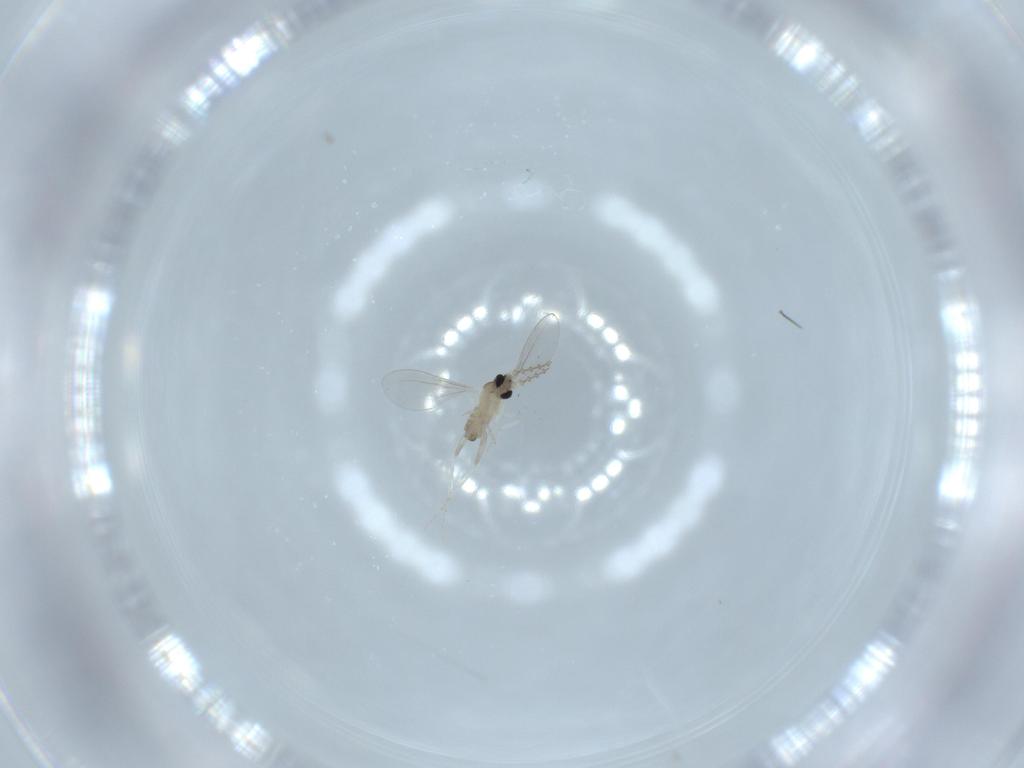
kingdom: Animalia
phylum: Arthropoda
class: Insecta
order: Diptera
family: Cecidomyiidae
